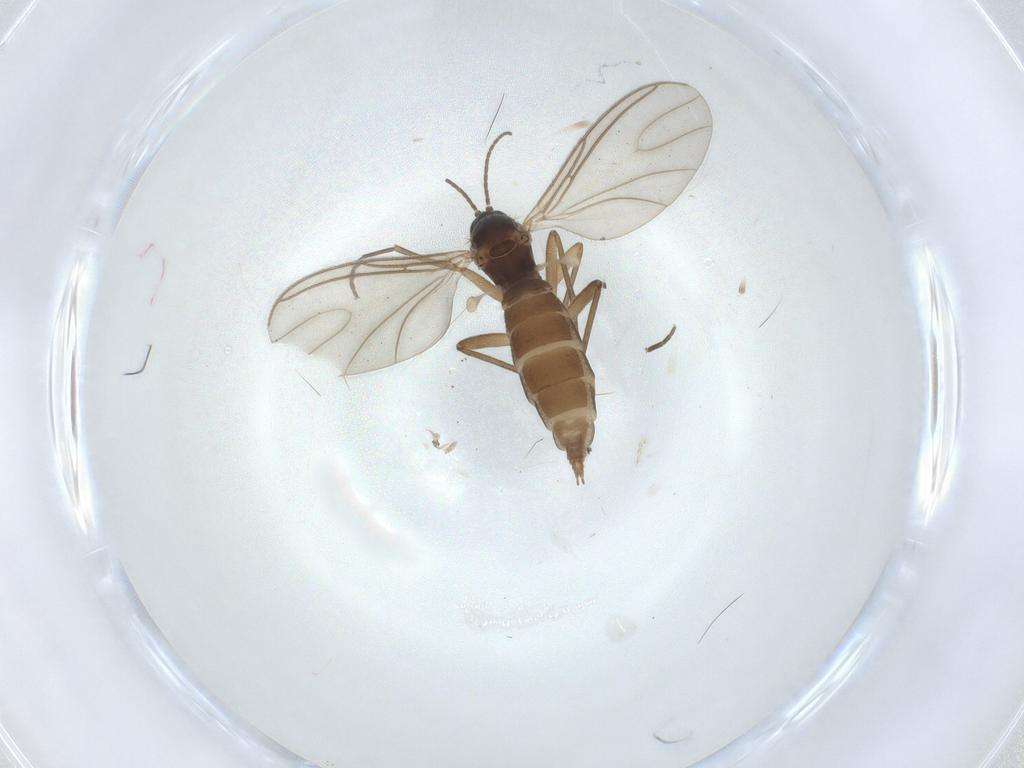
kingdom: Animalia
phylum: Arthropoda
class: Insecta
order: Diptera
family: Sciaridae
